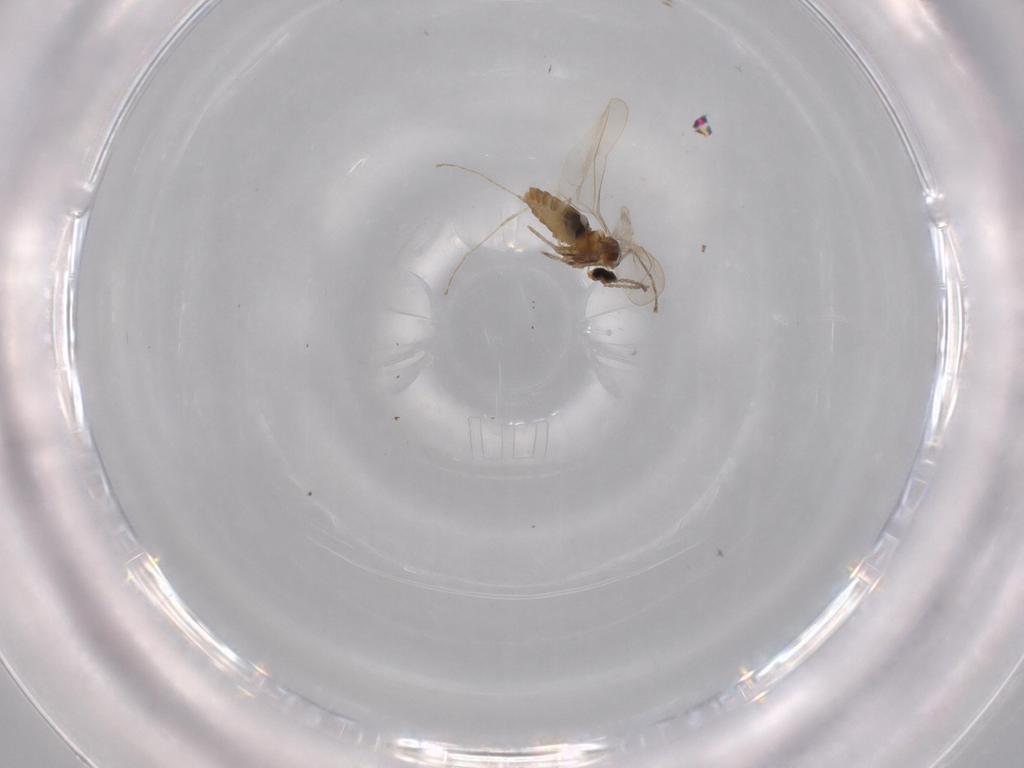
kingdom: Animalia
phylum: Arthropoda
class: Insecta
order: Diptera
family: Cecidomyiidae
